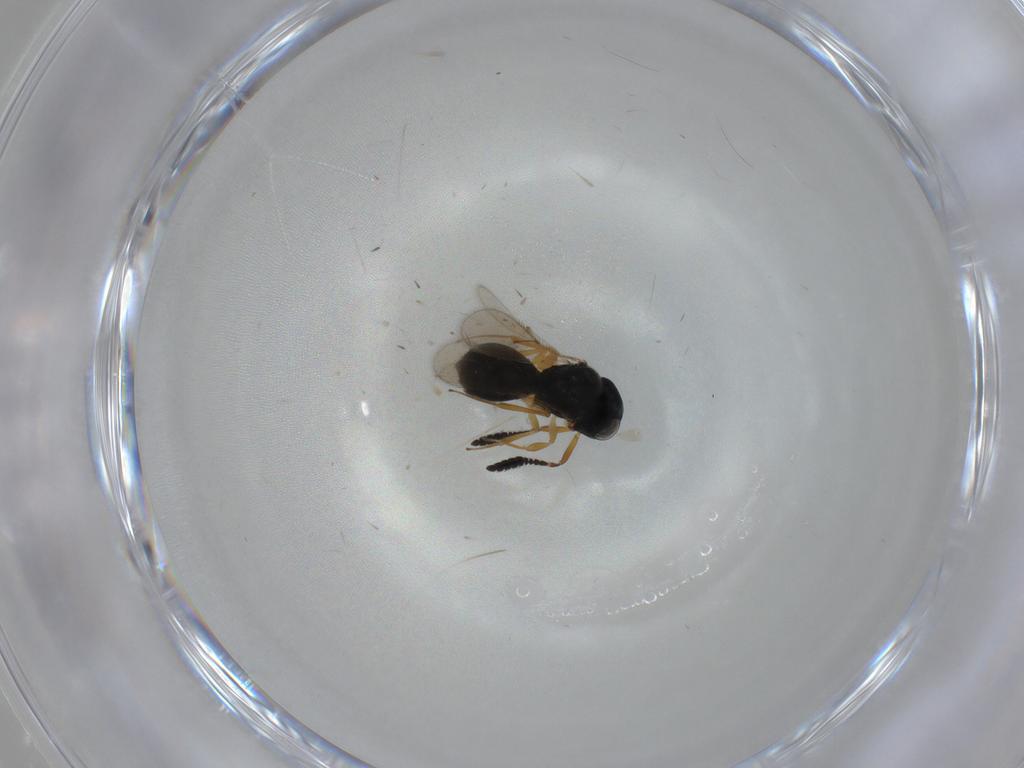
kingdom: Animalia
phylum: Arthropoda
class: Insecta
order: Hymenoptera
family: Scelionidae
